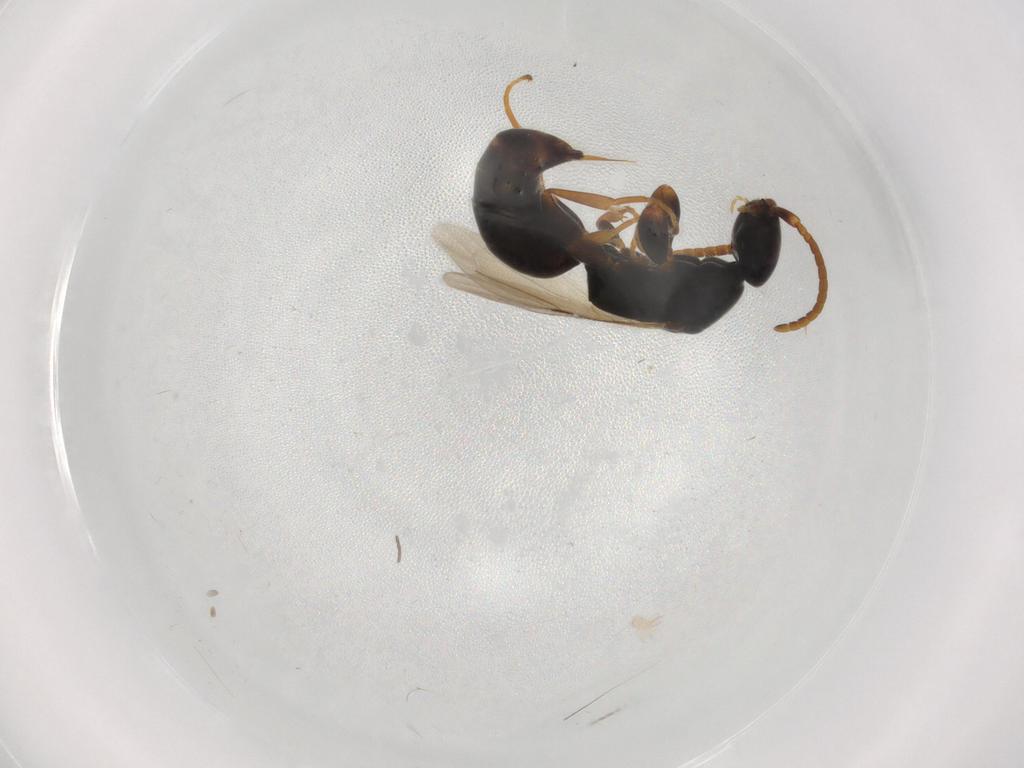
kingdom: Animalia
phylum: Arthropoda
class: Insecta
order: Hymenoptera
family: Bethylidae
